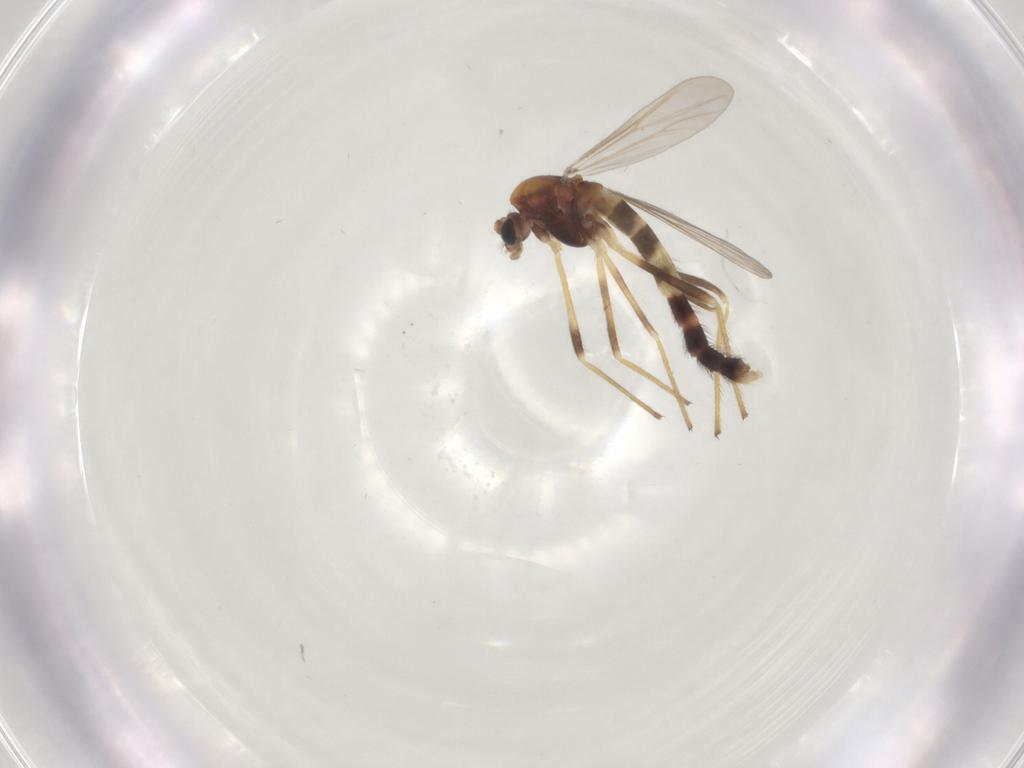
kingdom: Animalia
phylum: Arthropoda
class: Insecta
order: Diptera
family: Chironomidae
